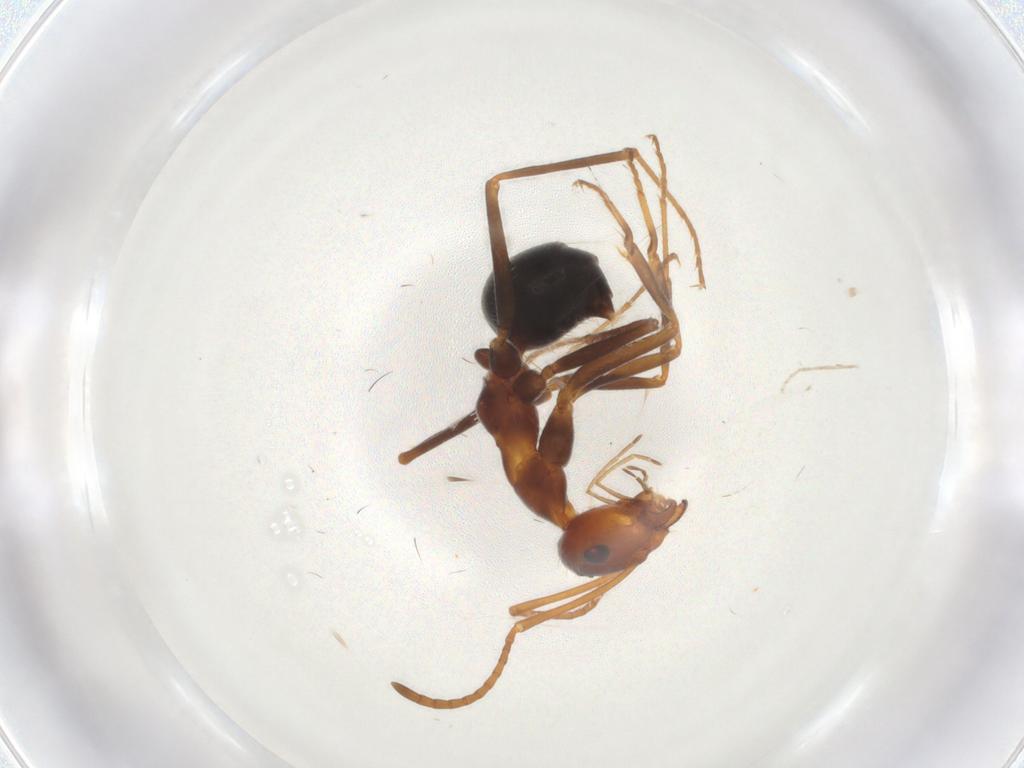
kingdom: Animalia
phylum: Arthropoda
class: Insecta
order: Hymenoptera
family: Formicidae
